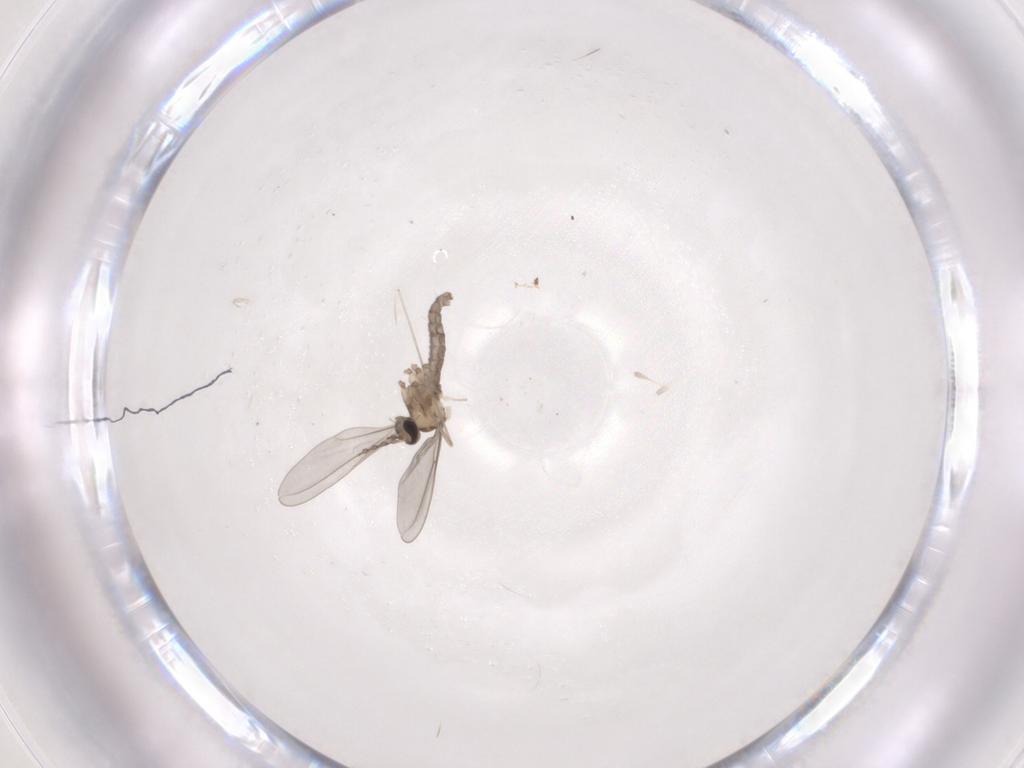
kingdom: Animalia
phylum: Arthropoda
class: Insecta
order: Diptera
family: Cecidomyiidae
